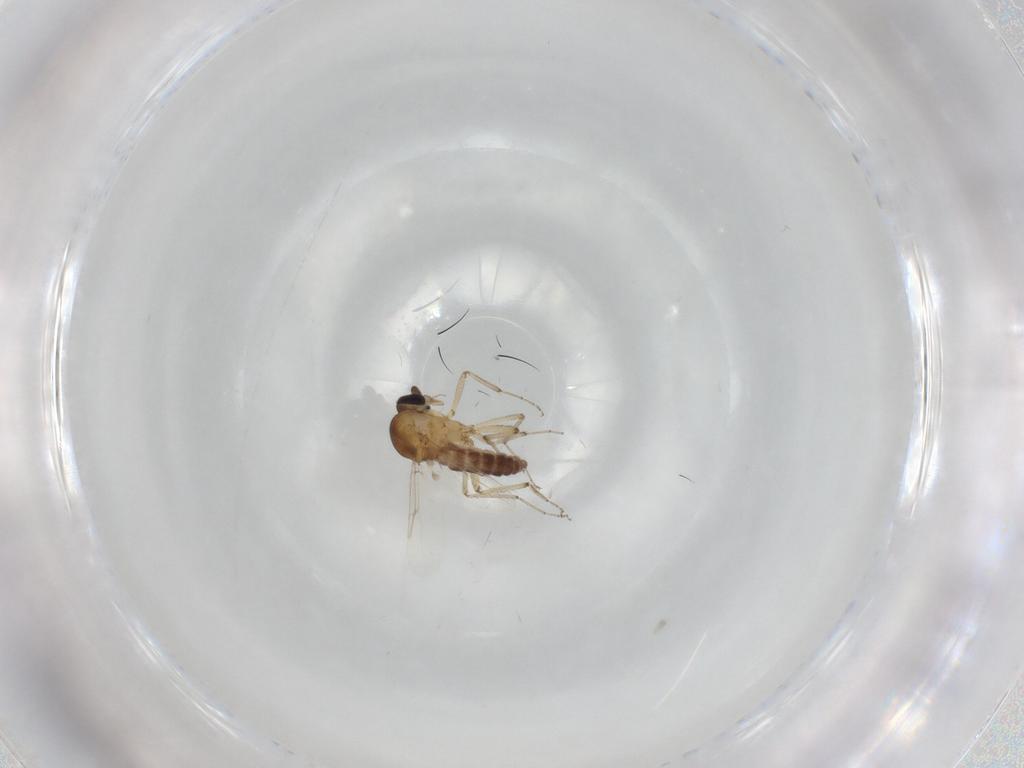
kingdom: Animalia
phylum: Arthropoda
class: Insecta
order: Diptera
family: Ceratopogonidae
